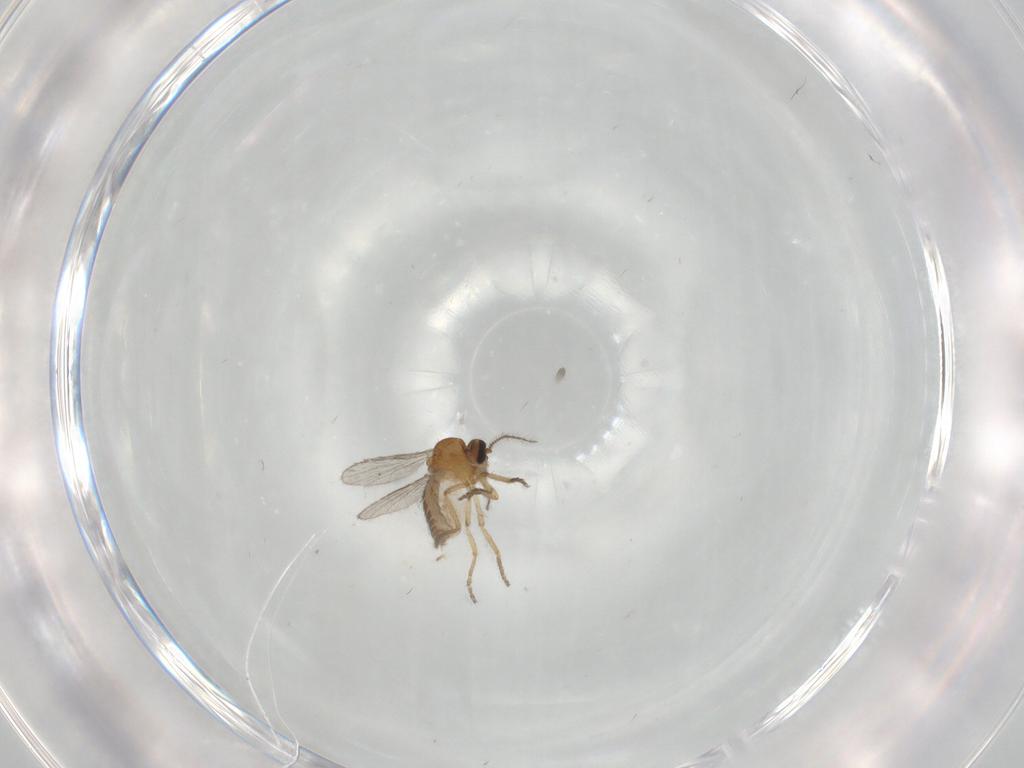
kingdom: Animalia
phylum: Arthropoda
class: Insecta
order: Diptera
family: Ceratopogonidae
